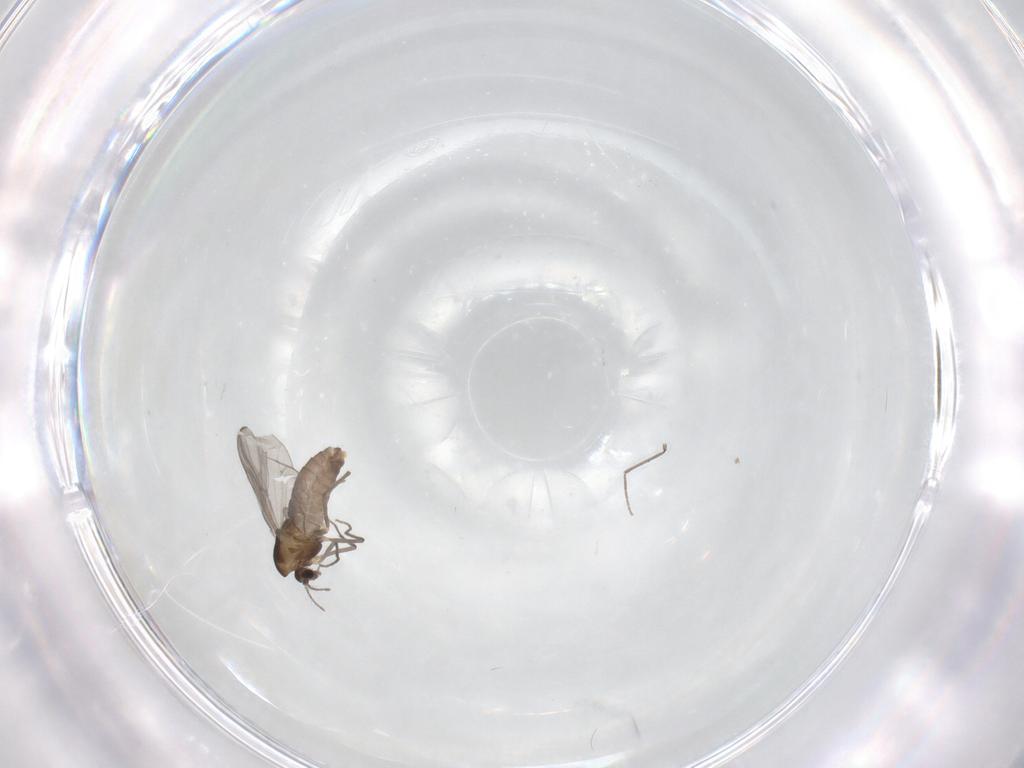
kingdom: Animalia
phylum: Arthropoda
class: Insecta
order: Diptera
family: Chironomidae
